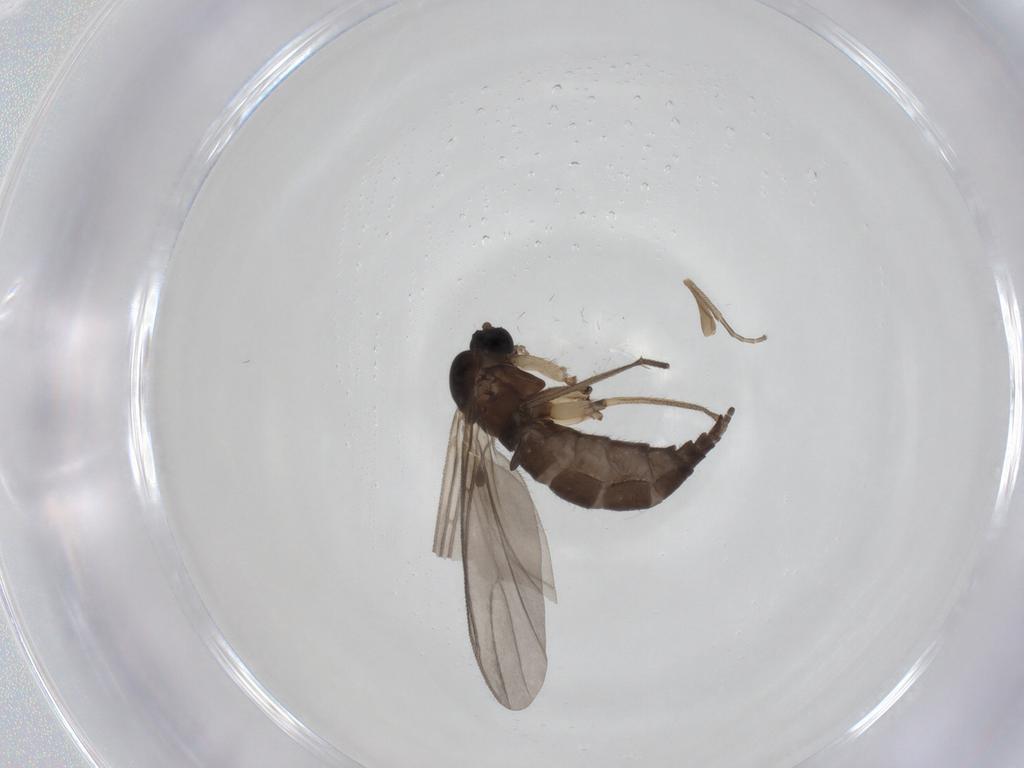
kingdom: Animalia
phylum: Arthropoda
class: Insecta
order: Diptera
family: Sciaridae
